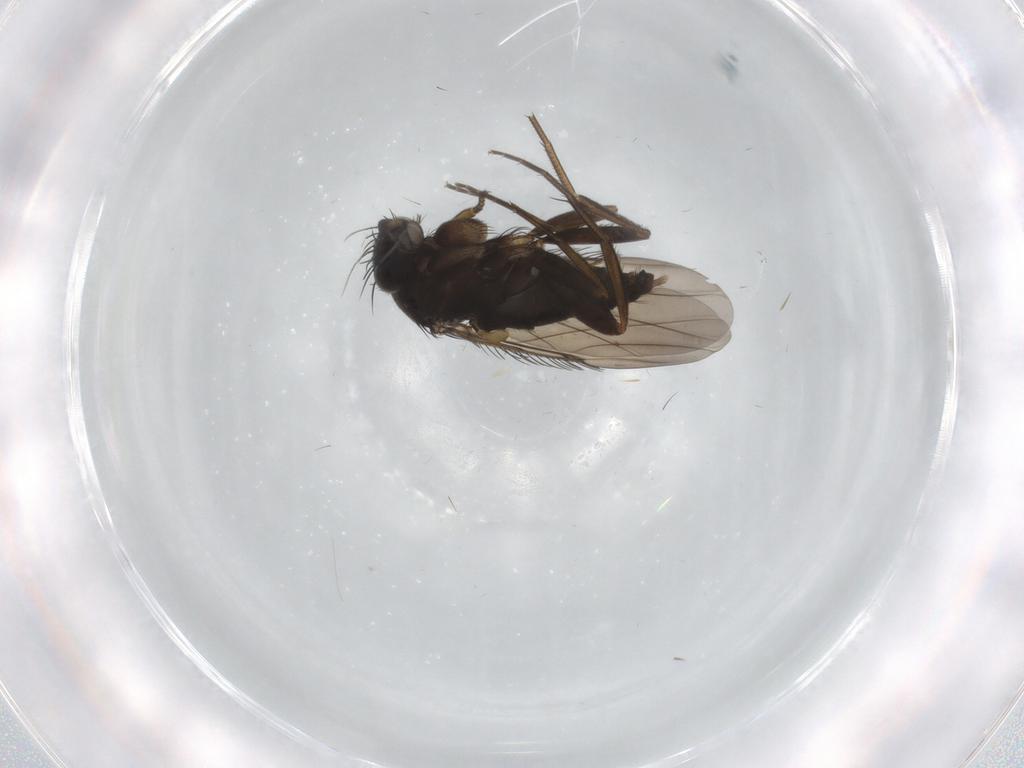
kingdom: Animalia
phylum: Arthropoda
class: Insecta
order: Diptera
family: Phoridae
